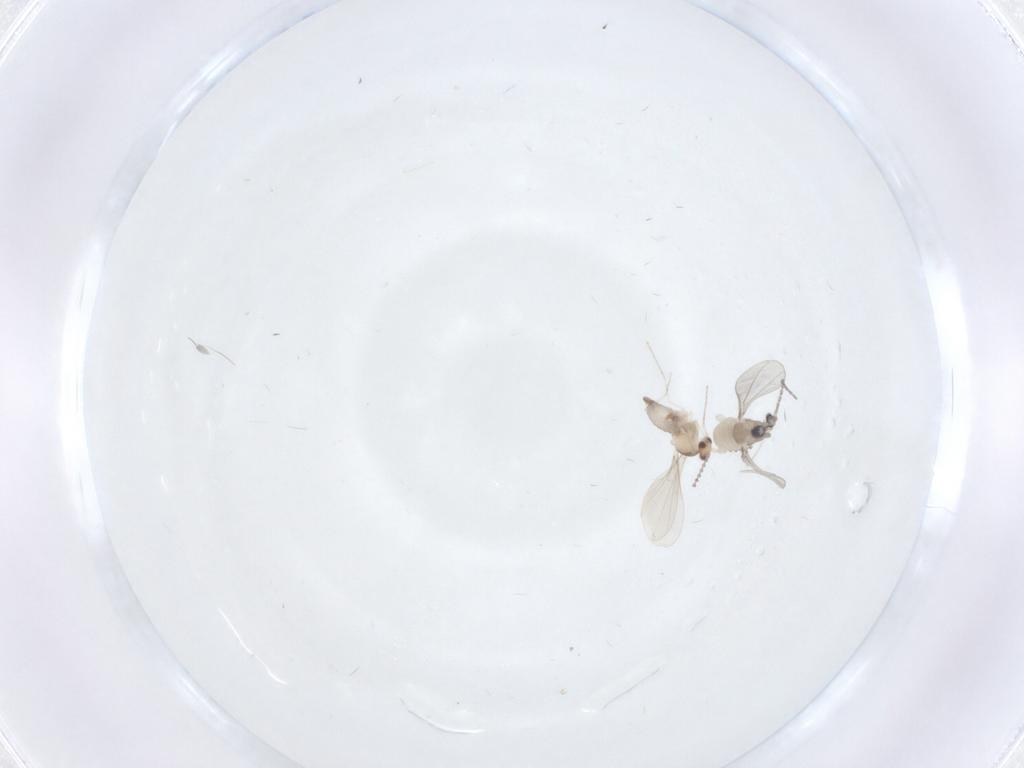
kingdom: Animalia
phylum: Arthropoda
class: Insecta
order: Diptera
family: Cecidomyiidae
